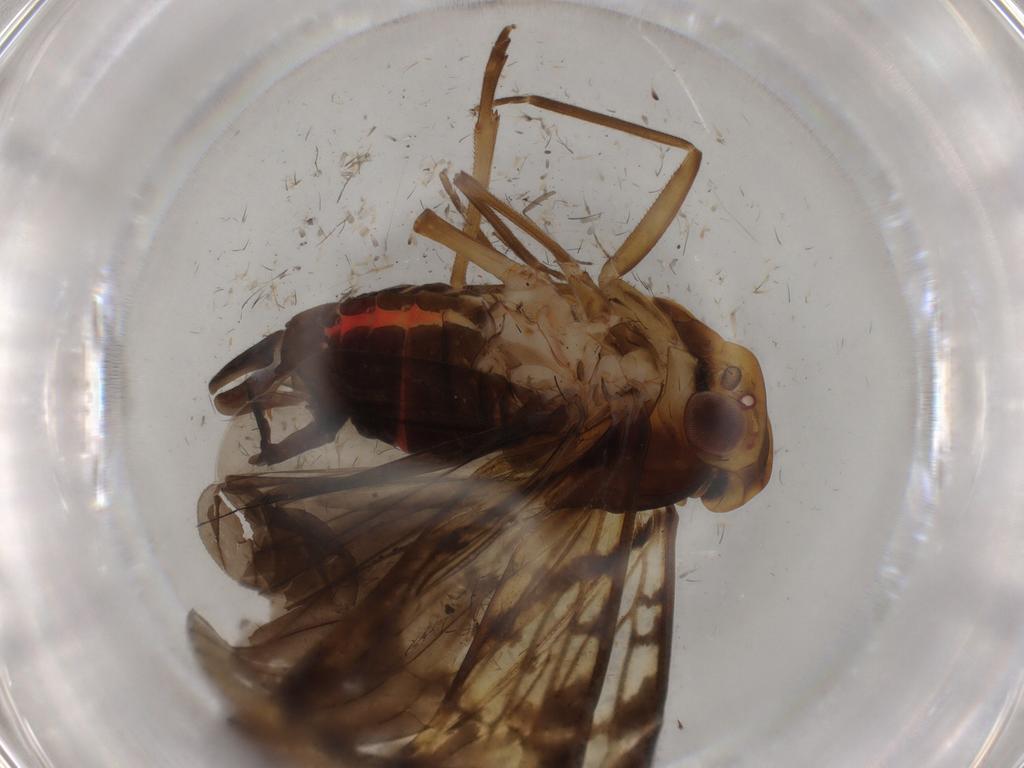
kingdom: Animalia
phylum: Arthropoda
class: Insecta
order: Hemiptera
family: Cixiidae
